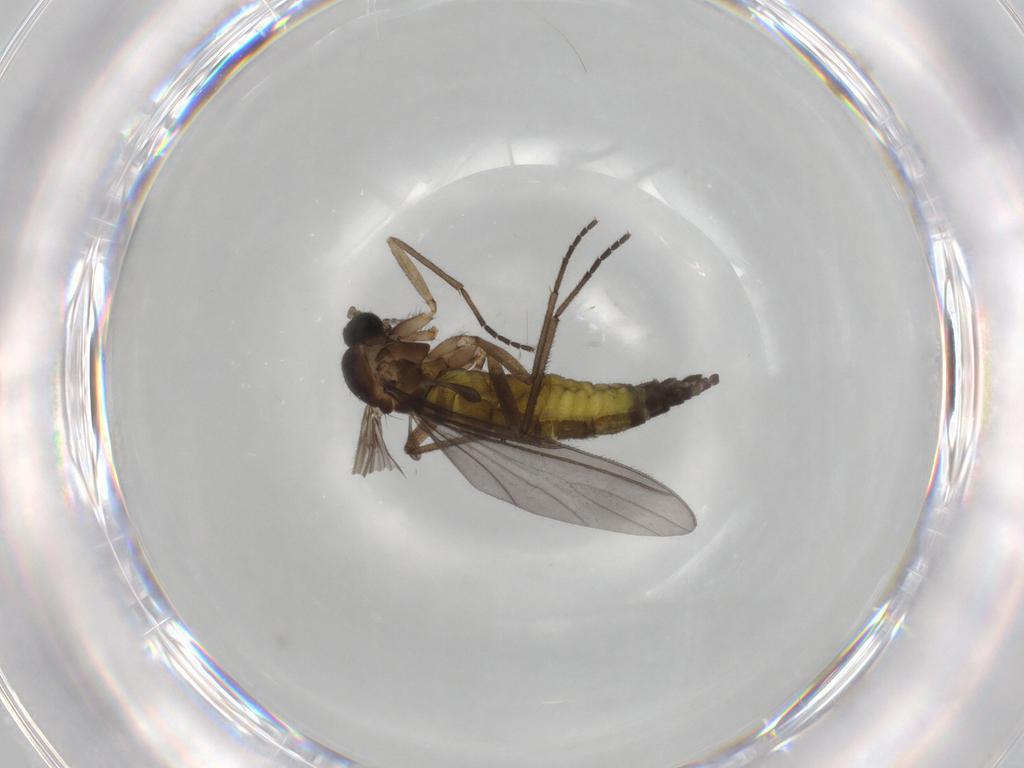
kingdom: Animalia
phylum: Arthropoda
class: Insecta
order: Diptera
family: Sciaridae
